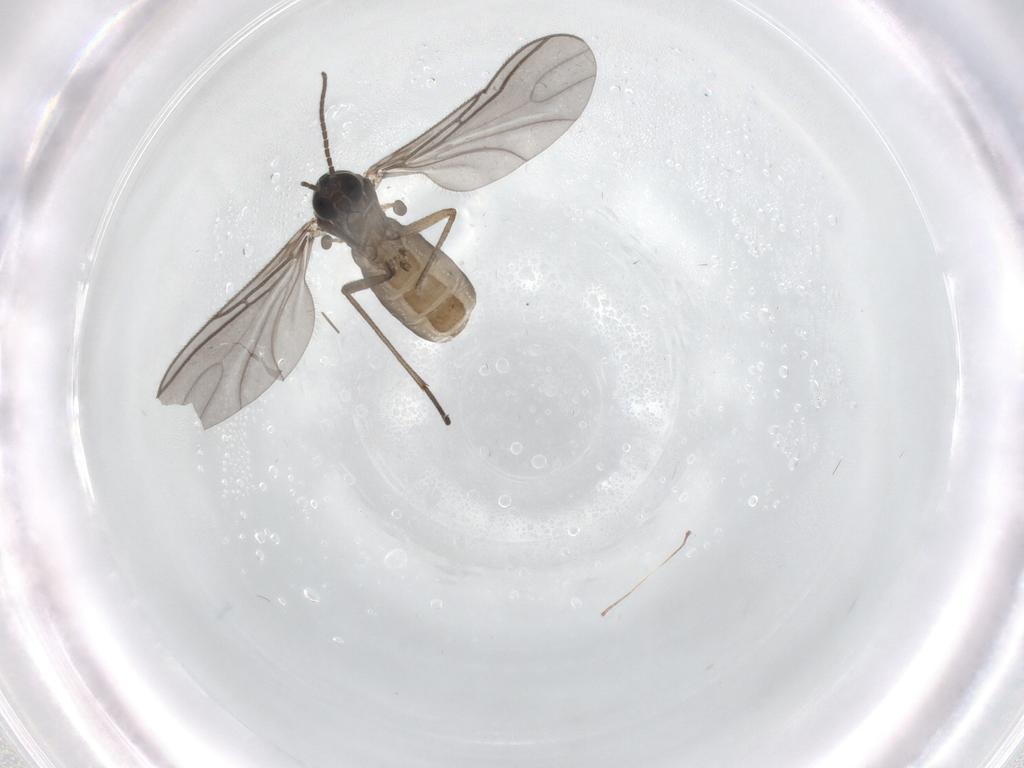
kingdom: Animalia
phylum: Arthropoda
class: Insecta
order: Diptera
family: Sciaridae
